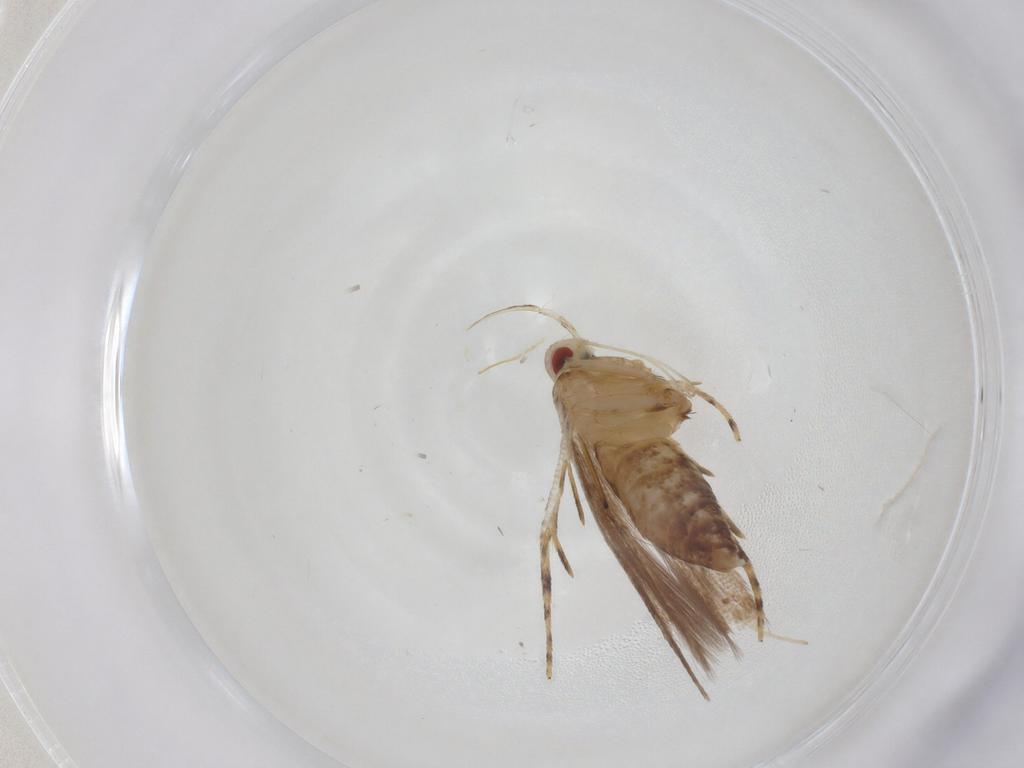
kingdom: Animalia
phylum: Arthropoda
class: Insecta
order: Lepidoptera
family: Cosmopterigidae
